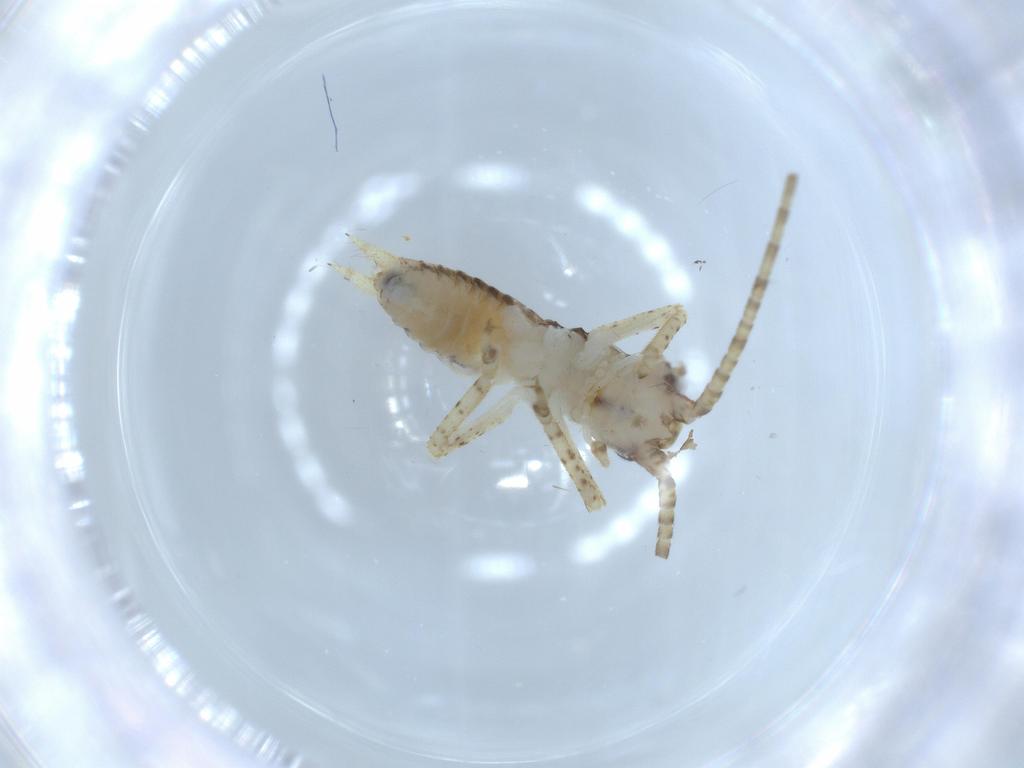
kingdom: Animalia
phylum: Arthropoda
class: Insecta
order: Orthoptera
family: Gryllidae
